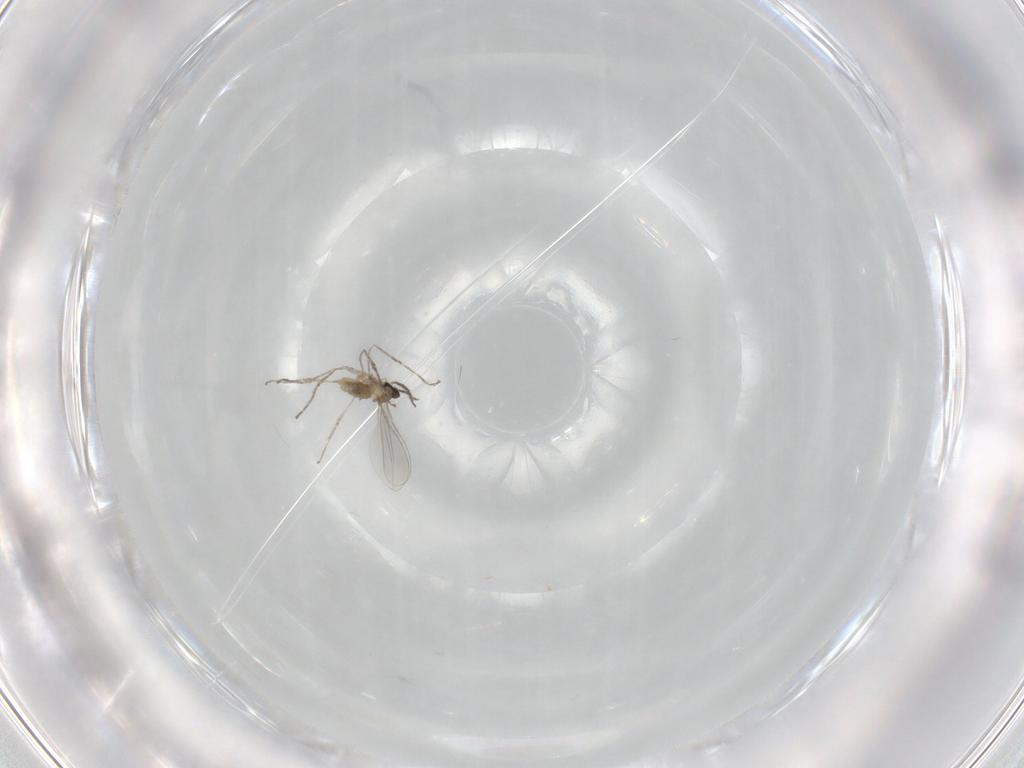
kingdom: Animalia
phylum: Arthropoda
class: Insecta
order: Diptera
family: Cecidomyiidae
